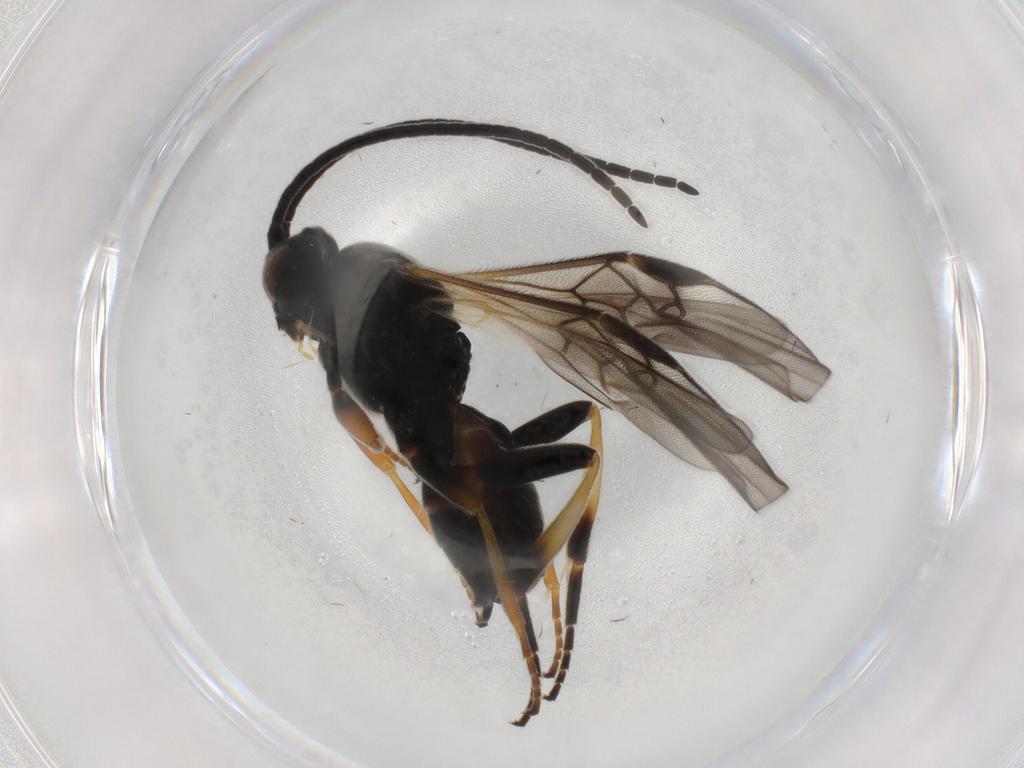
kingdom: Animalia
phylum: Arthropoda
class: Insecta
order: Hymenoptera
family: Braconidae
